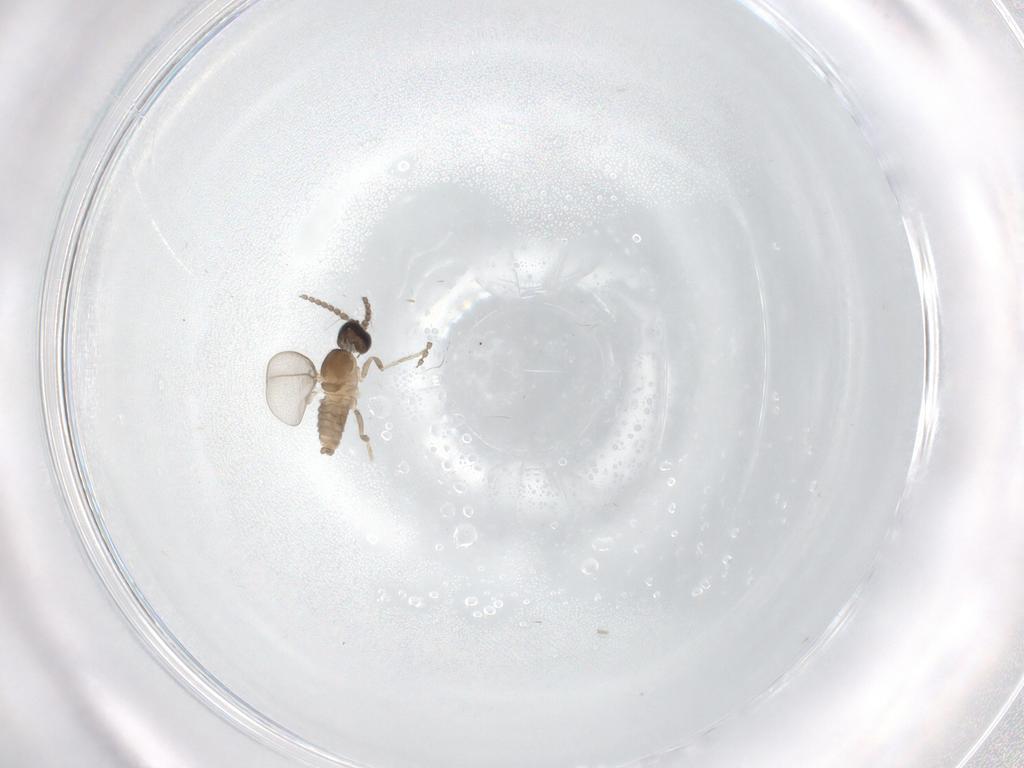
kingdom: Animalia
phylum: Arthropoda
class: Insecta
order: Diptera
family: Cecidomyiidae
